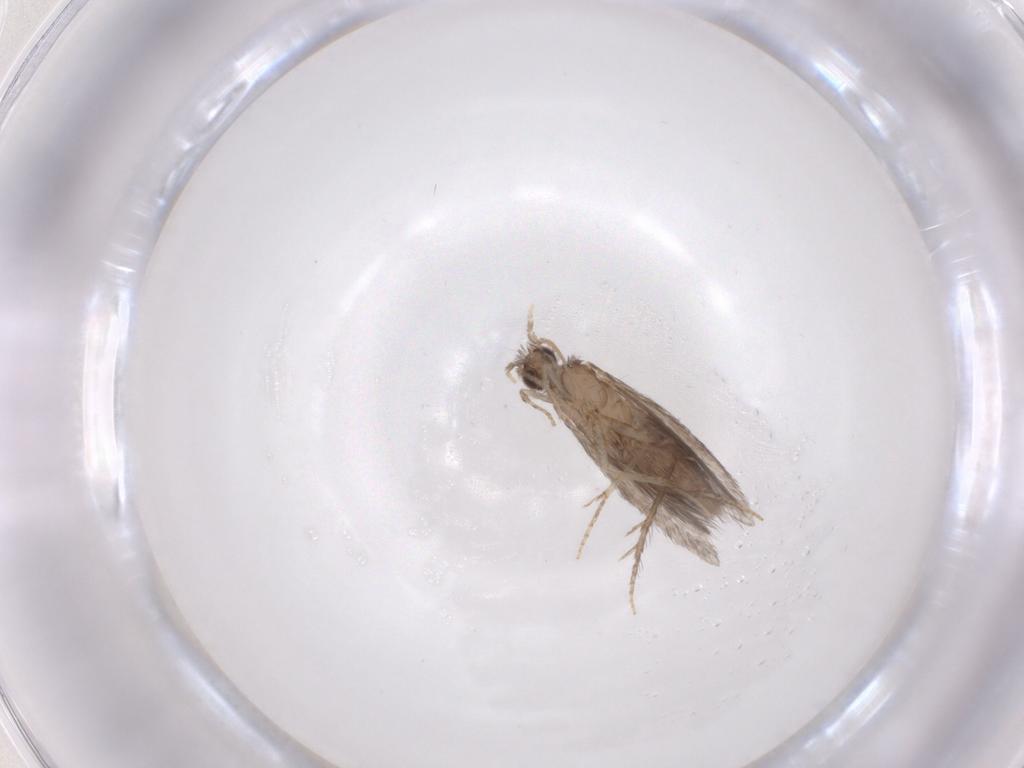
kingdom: Animalia
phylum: Arthropoda
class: Insecta
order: Trichoptera
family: Hydroptilidae
